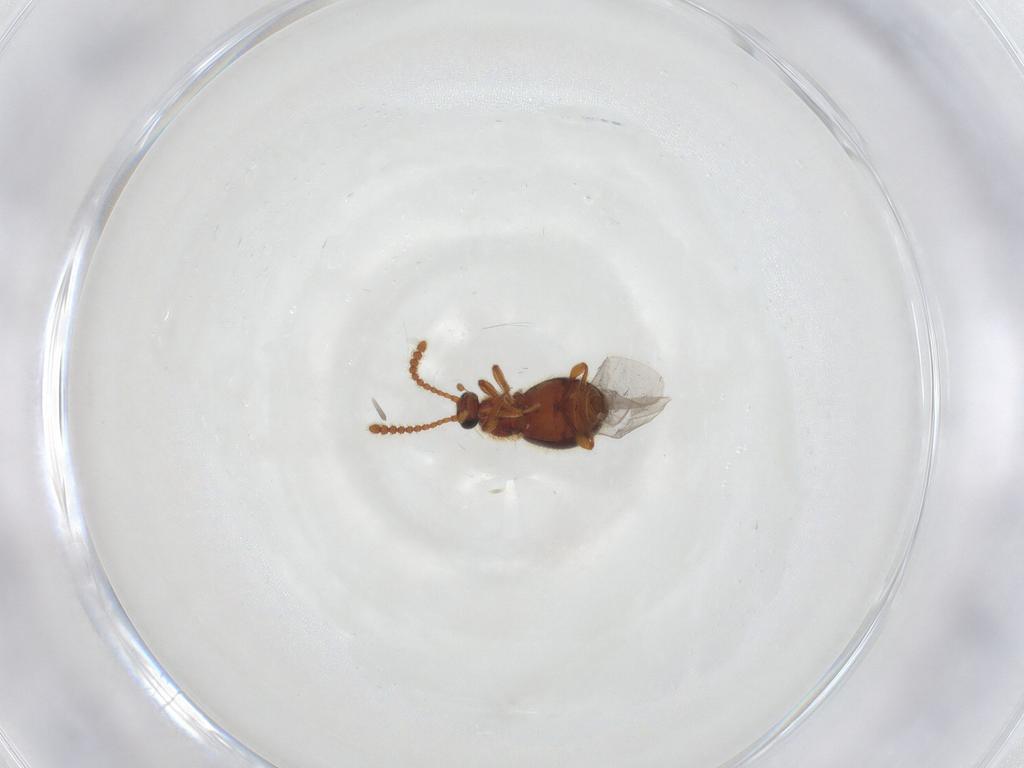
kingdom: Animalia
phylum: Arthropoda
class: Insecta
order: Coleoptera
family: Staphylinidae
